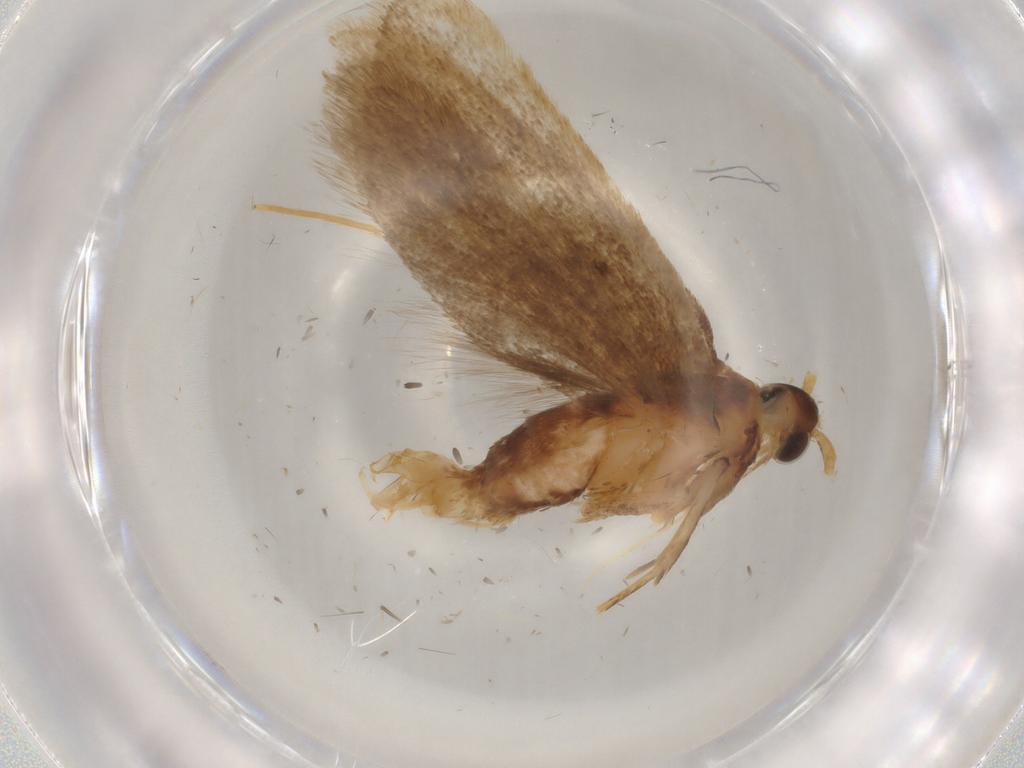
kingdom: Animalia
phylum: Arthropoda
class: Insecta
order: Lepidoptera
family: Lecithoceridae
